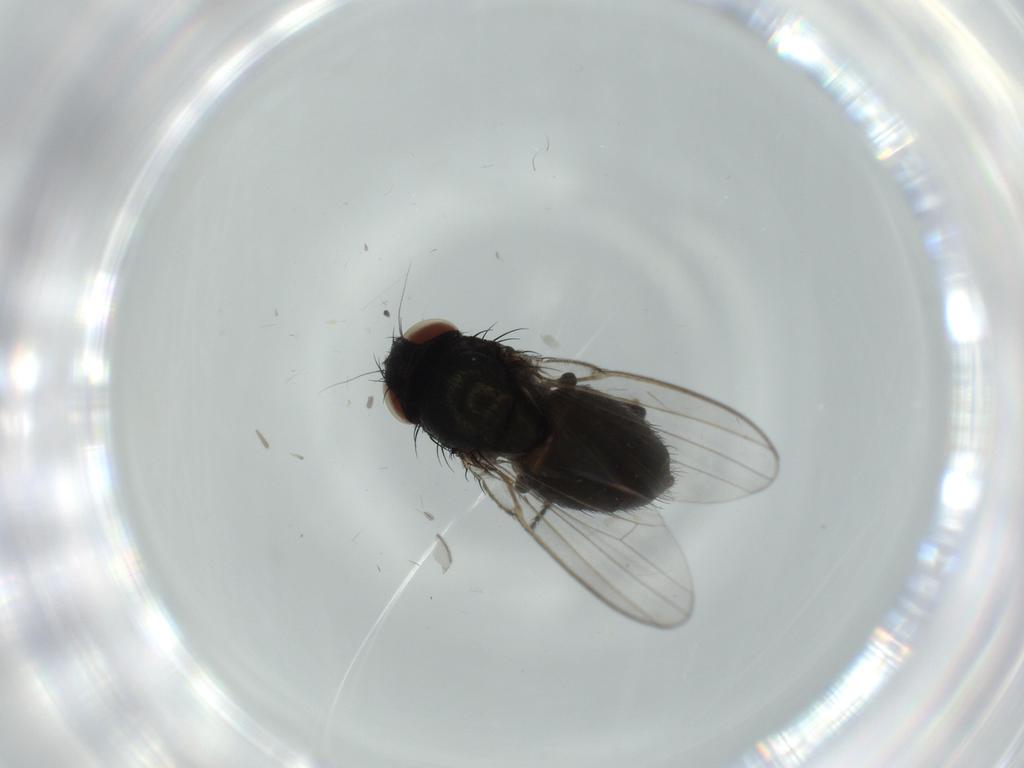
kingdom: Animalia
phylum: Arthropoda
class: Insecta
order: Diptera
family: Milichiidae
